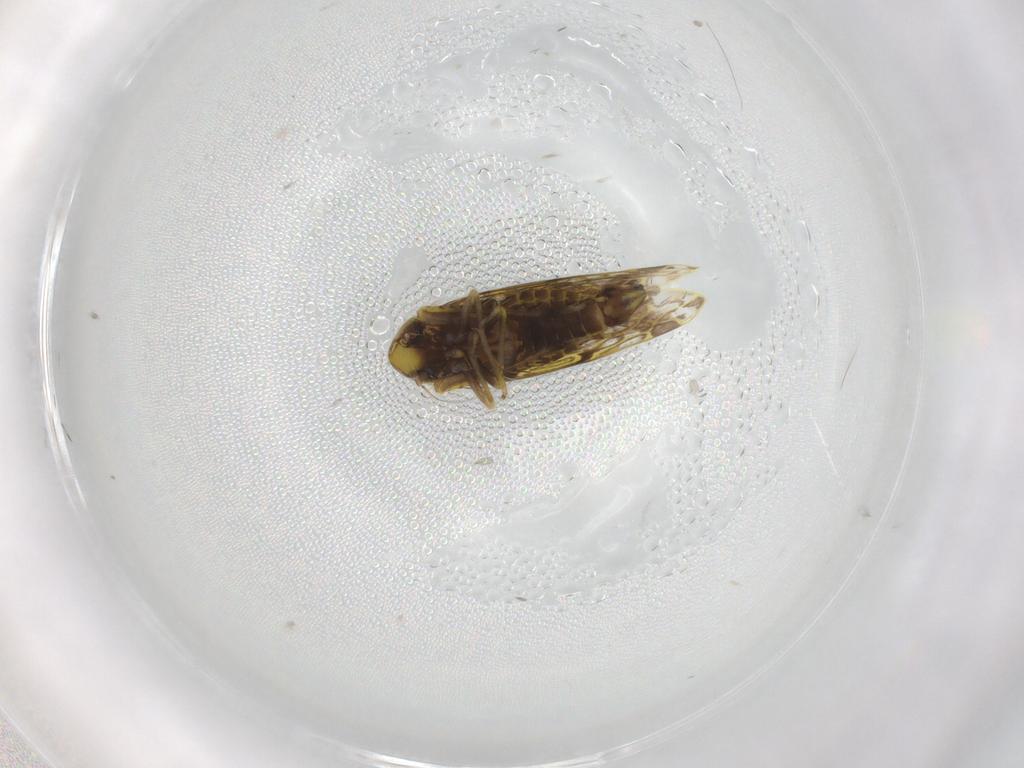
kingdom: Animalia
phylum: Arthropoda
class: Insecta
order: Hemiptera
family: Cicadellidae
